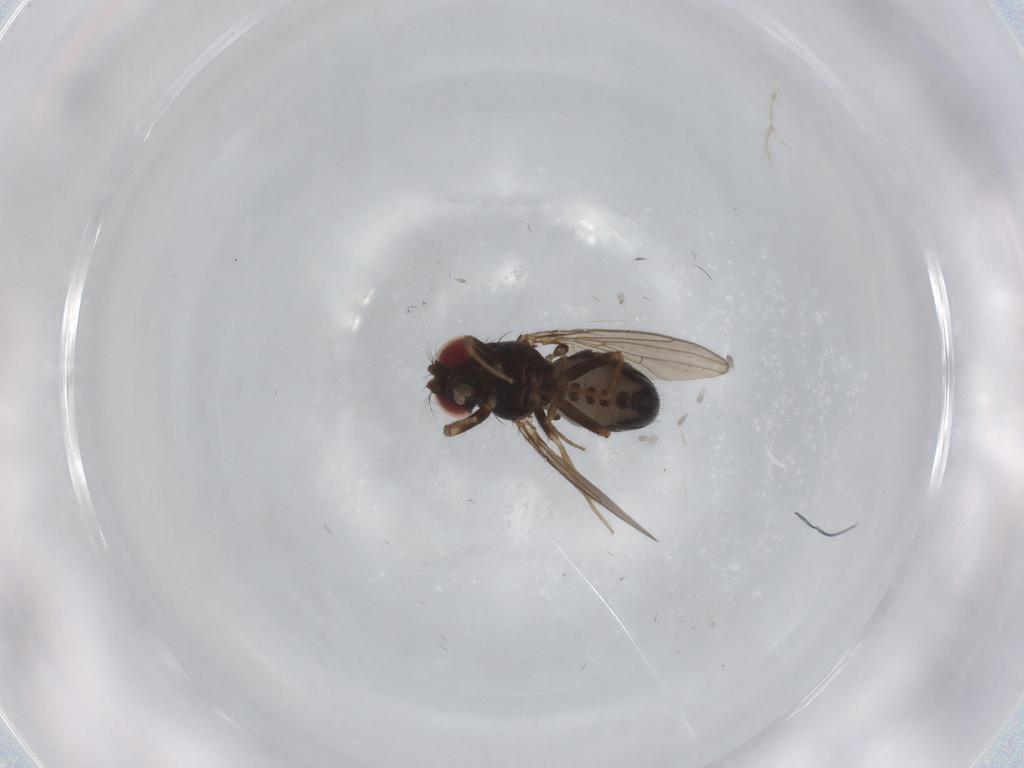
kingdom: Animalia
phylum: Arthropoda
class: Insecta
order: Diptera
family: Drosophilidae
